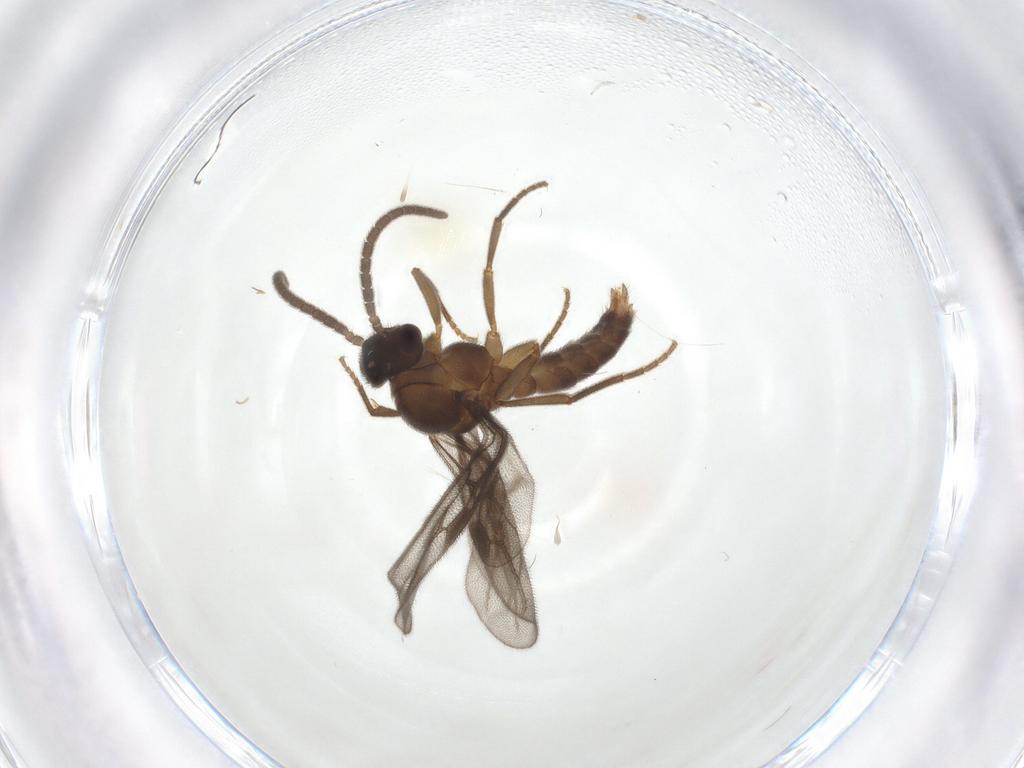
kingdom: Animalia
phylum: Arthropoda
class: Insecta
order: Hymenoptera
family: Formicidae
